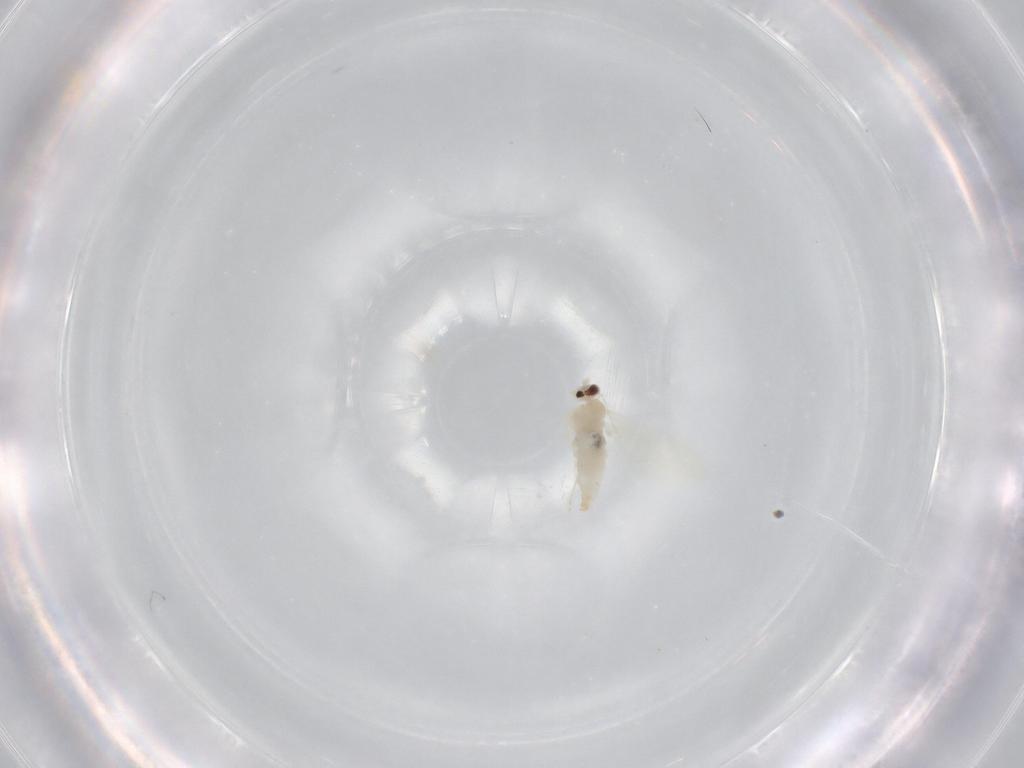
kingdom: Animalia
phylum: Arthropoda
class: Insecta
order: Diptera
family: Cecidomyiidae
